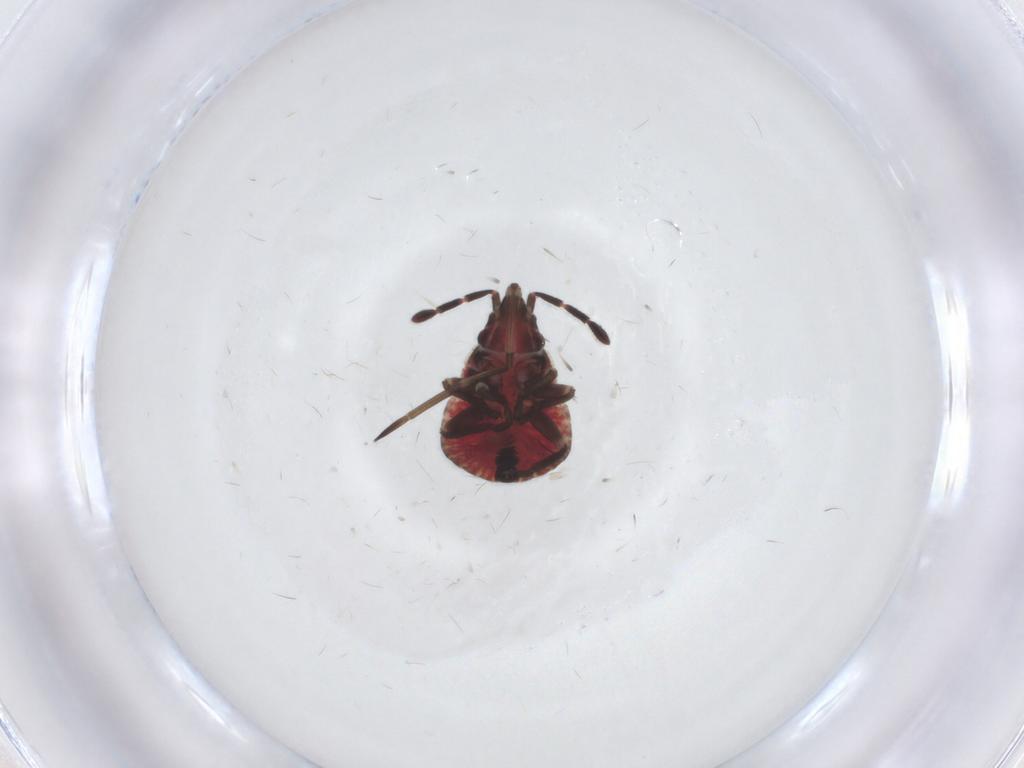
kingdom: Animalia
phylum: Arthropoda
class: Insecta
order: Hemiptera
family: Rhyparochromidae
